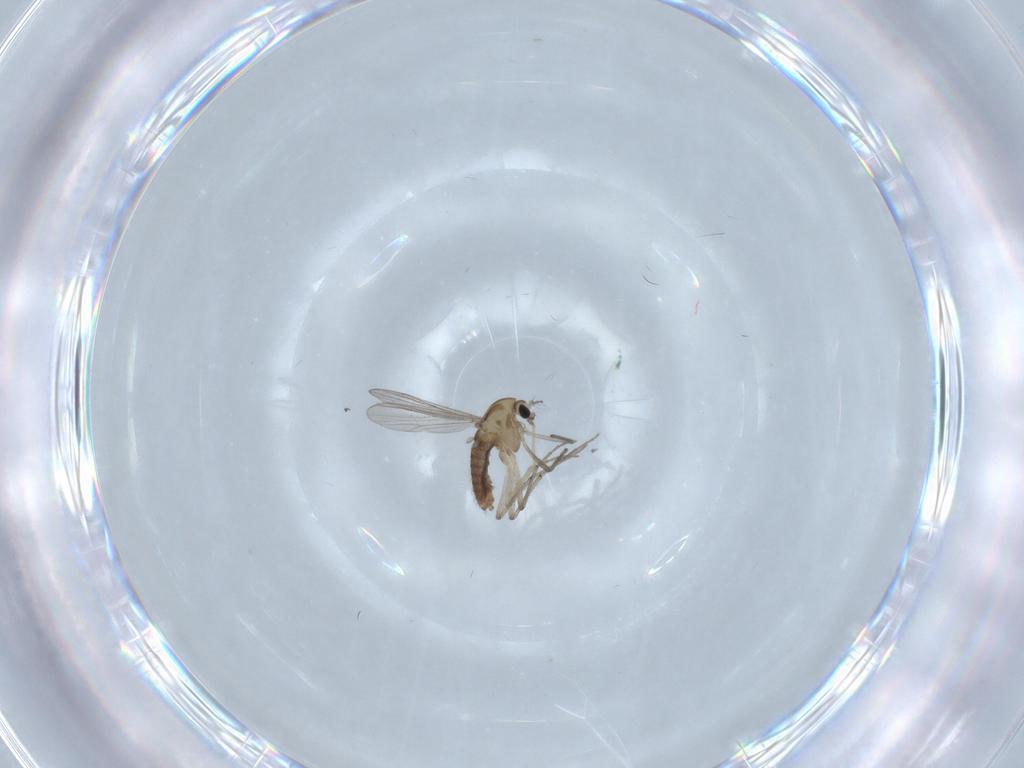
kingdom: Animalia
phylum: Arthropoda
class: Insecta
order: Diptera
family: Chironomidae
